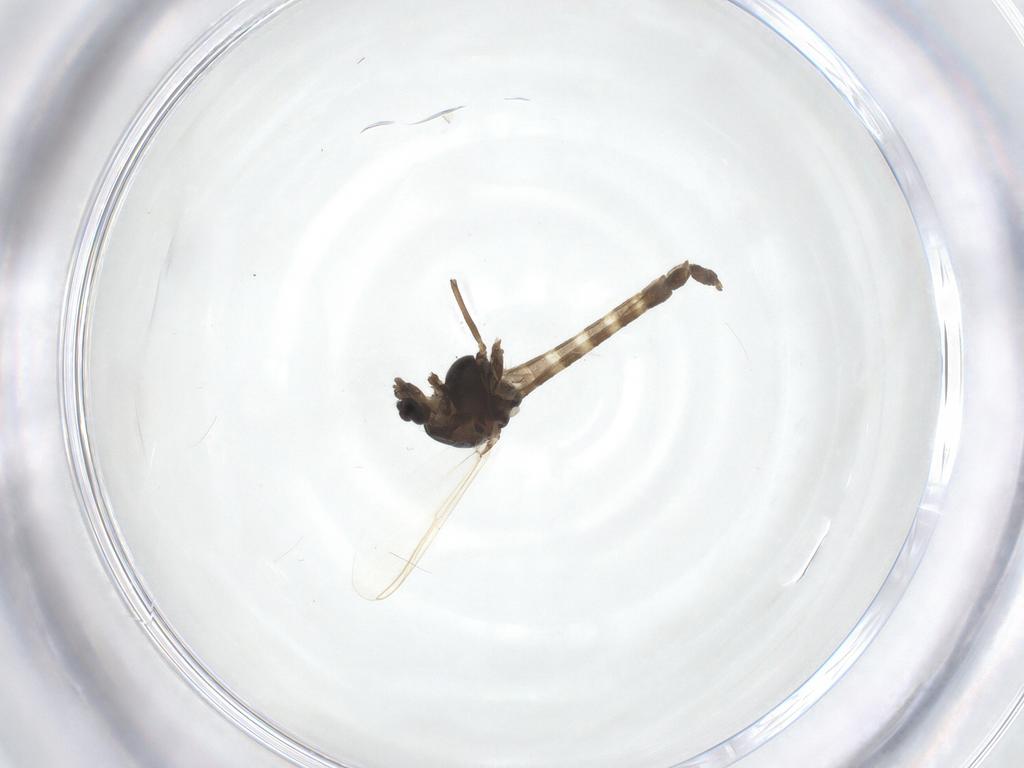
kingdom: Animalia
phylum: Arthropoda
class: Insecta
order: Diptera
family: Chironomidae
